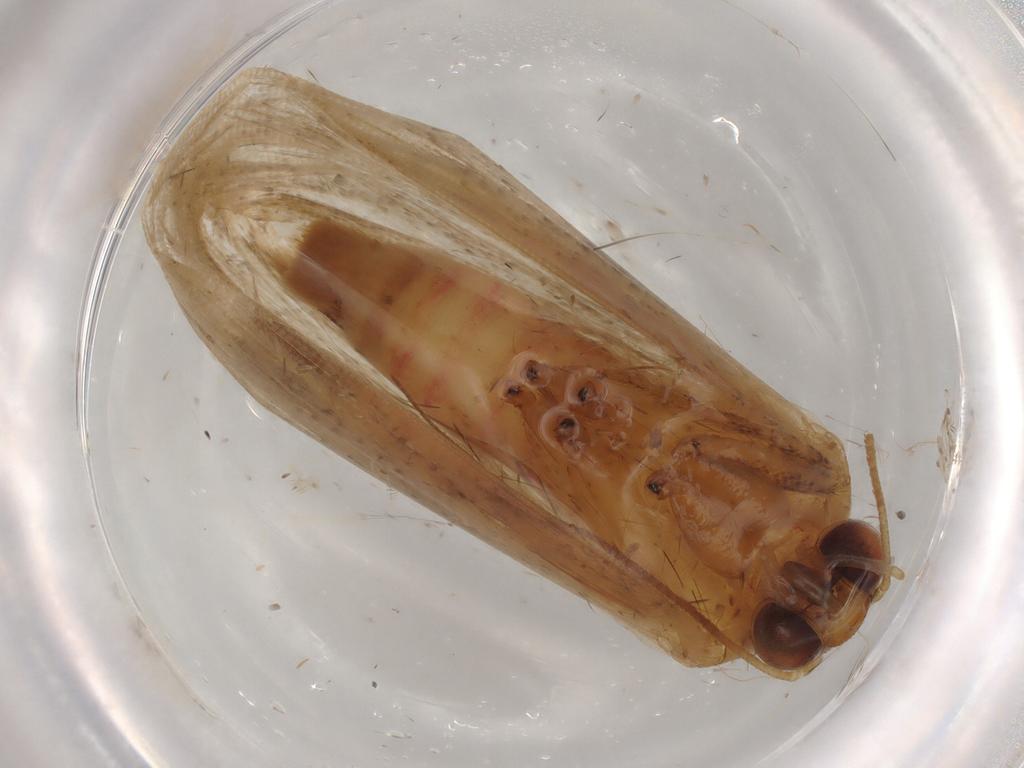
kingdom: Animalia
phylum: Arthropoda
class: Insecta
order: Lepidoptera
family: Noctuidae
